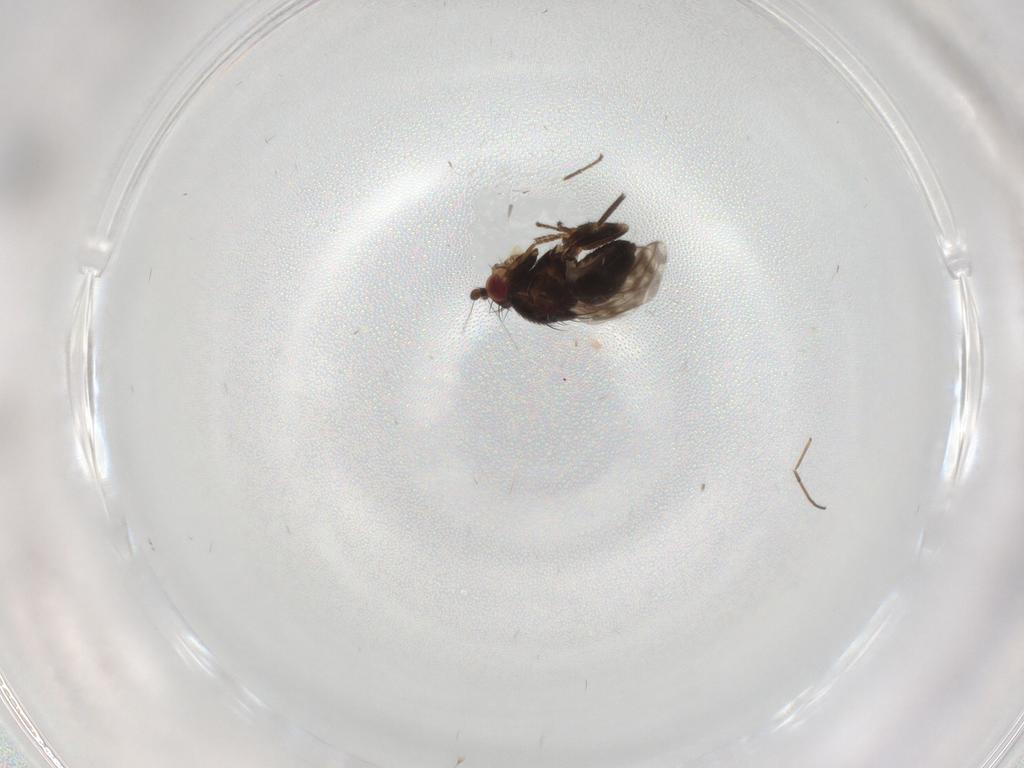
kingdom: Animalia
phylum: Arthropoda
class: Insecta
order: Diptera
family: Sphaeroceridae
